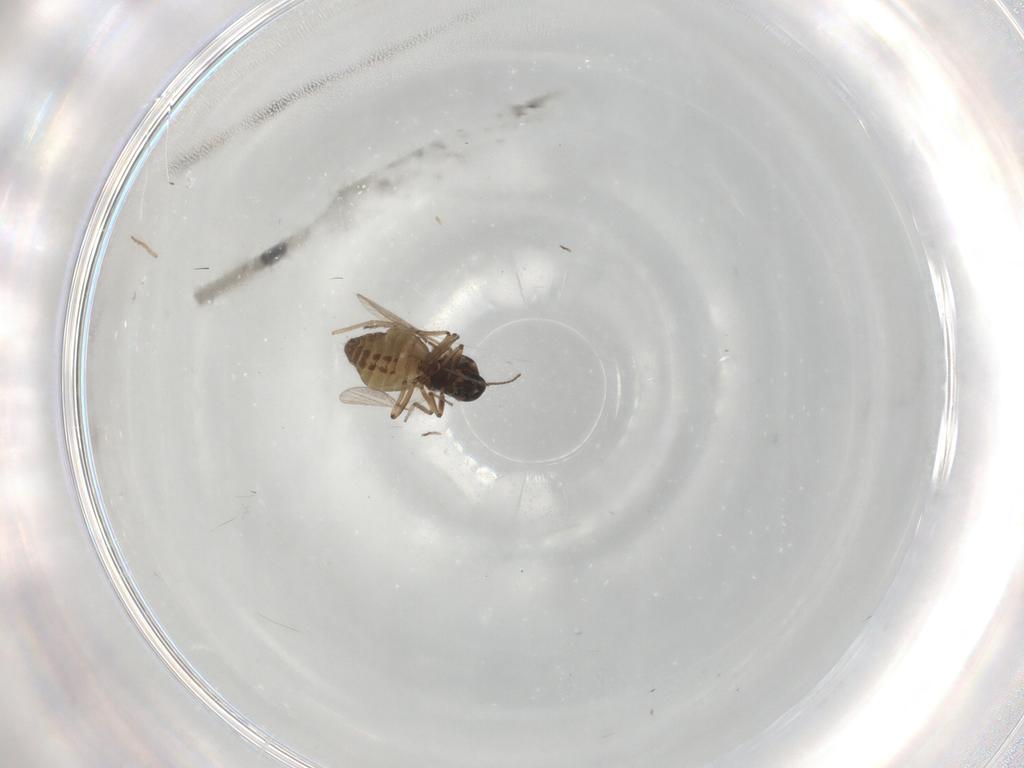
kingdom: Animalia
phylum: Arthropoda
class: Insecta
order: Diptera
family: Ceratopogonidae
